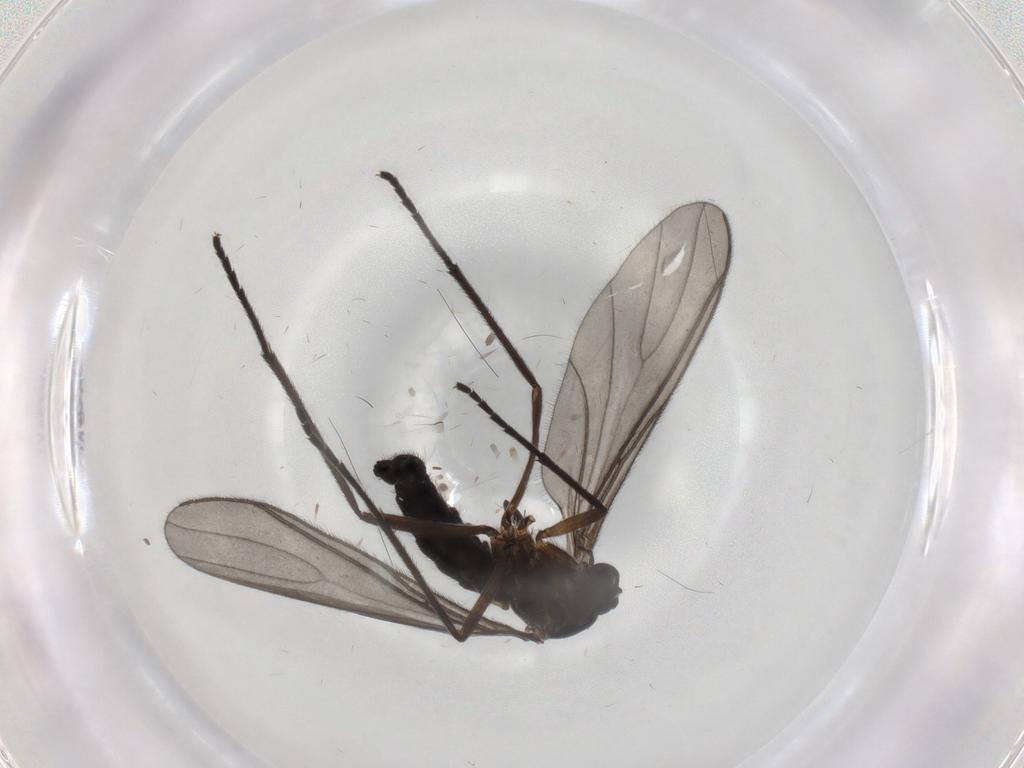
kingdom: Animalia
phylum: Arthropoda
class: Insecta
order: Diptera
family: Sciaridae
